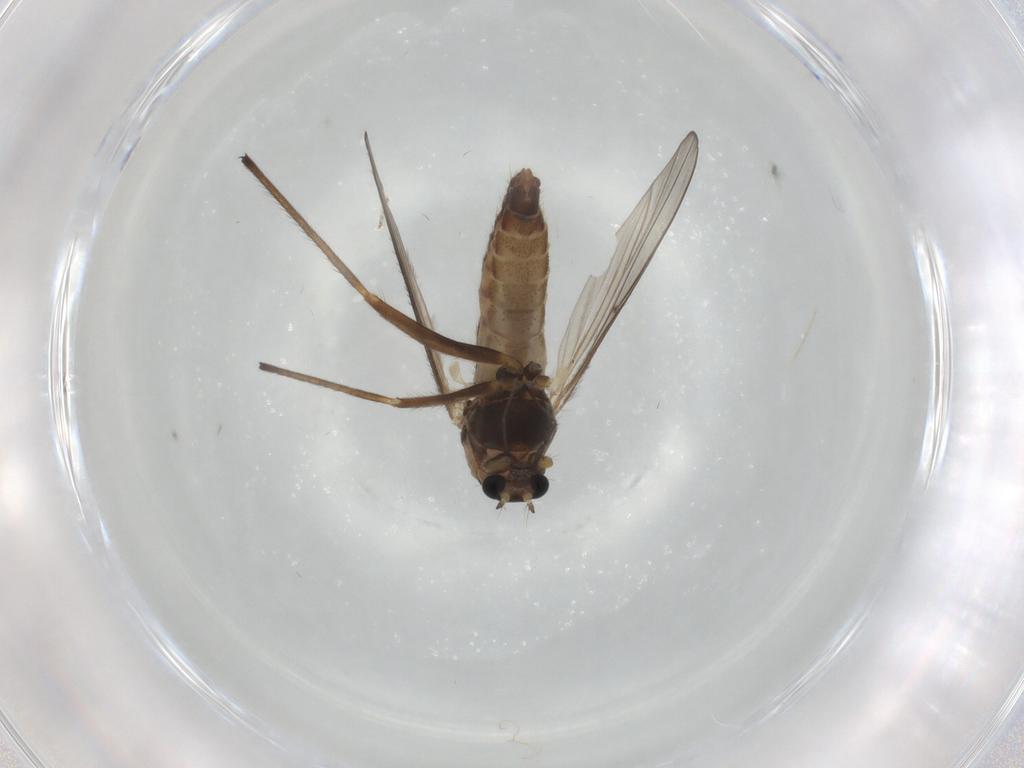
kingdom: Animalia
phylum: Arthropoda
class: Insecta
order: Diptera
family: Chironomidae
